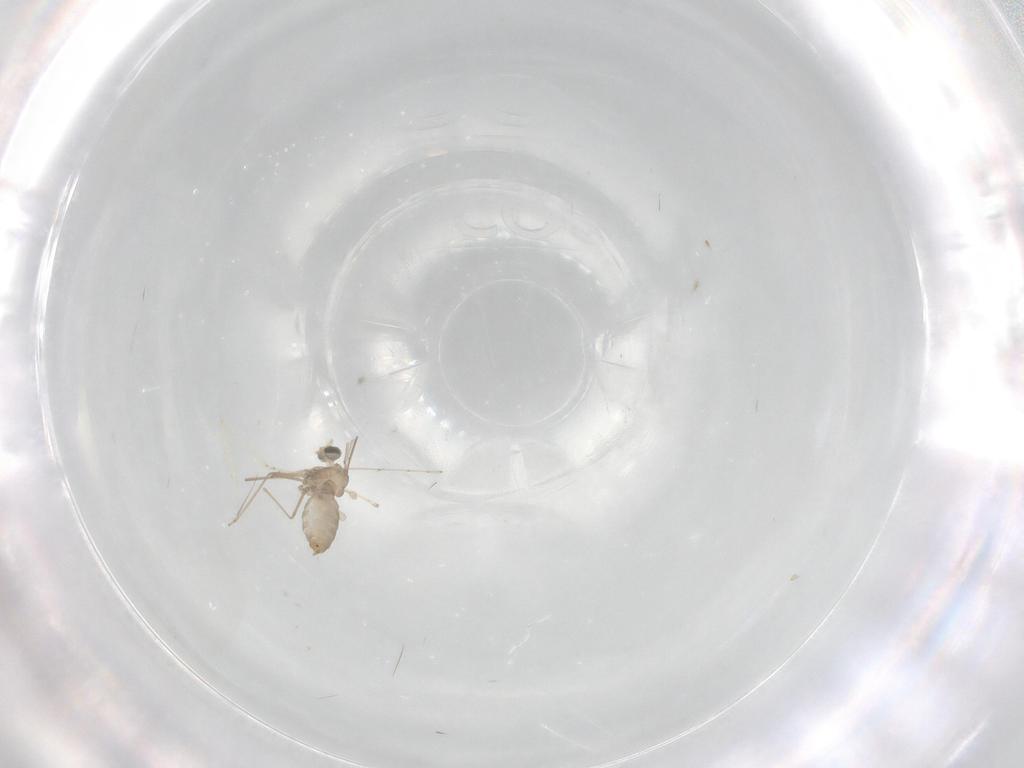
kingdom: Animalia
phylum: Arthropoda
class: Insecta
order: Diptera
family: Cecidomyiidae
